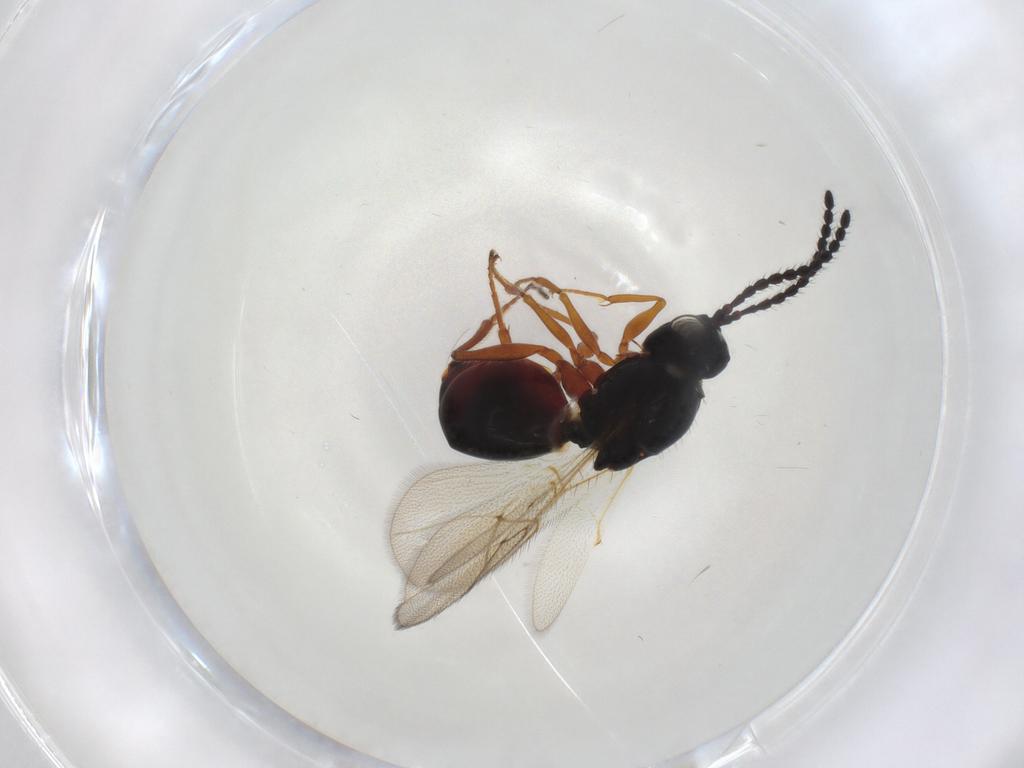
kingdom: Animalia
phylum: Arthropoda
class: Insecta
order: Hymenoptera
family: Figitidae
